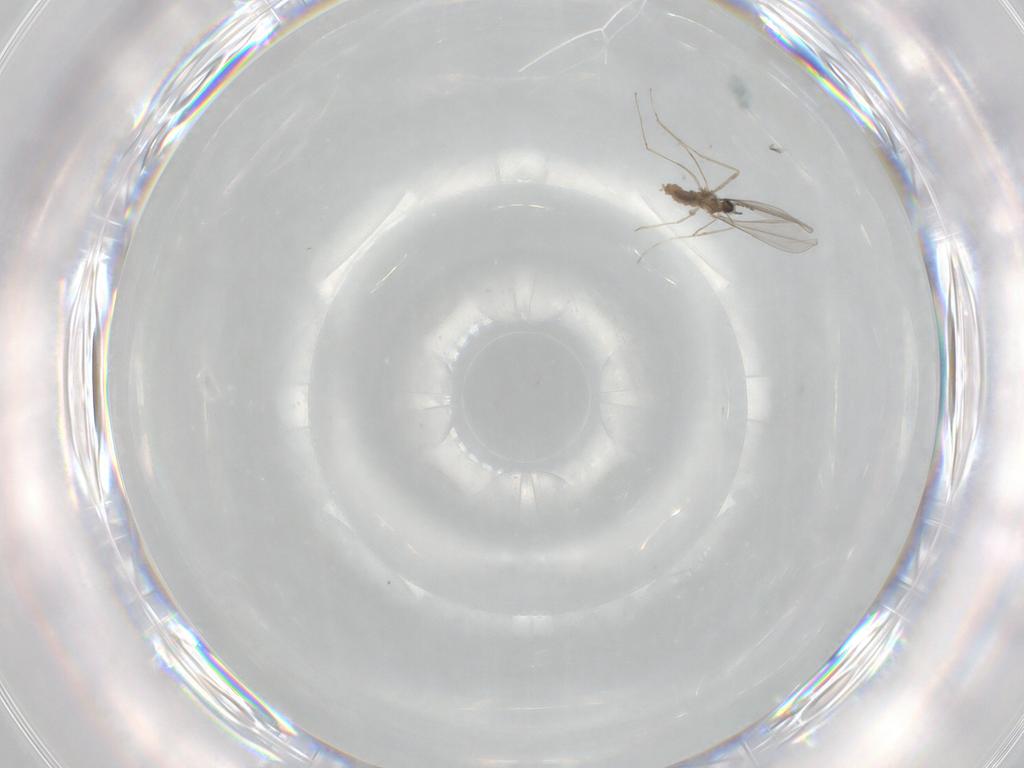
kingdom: Animalia
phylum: Arthropoda
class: Insecta
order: Diptera
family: Cecidomyiidae
